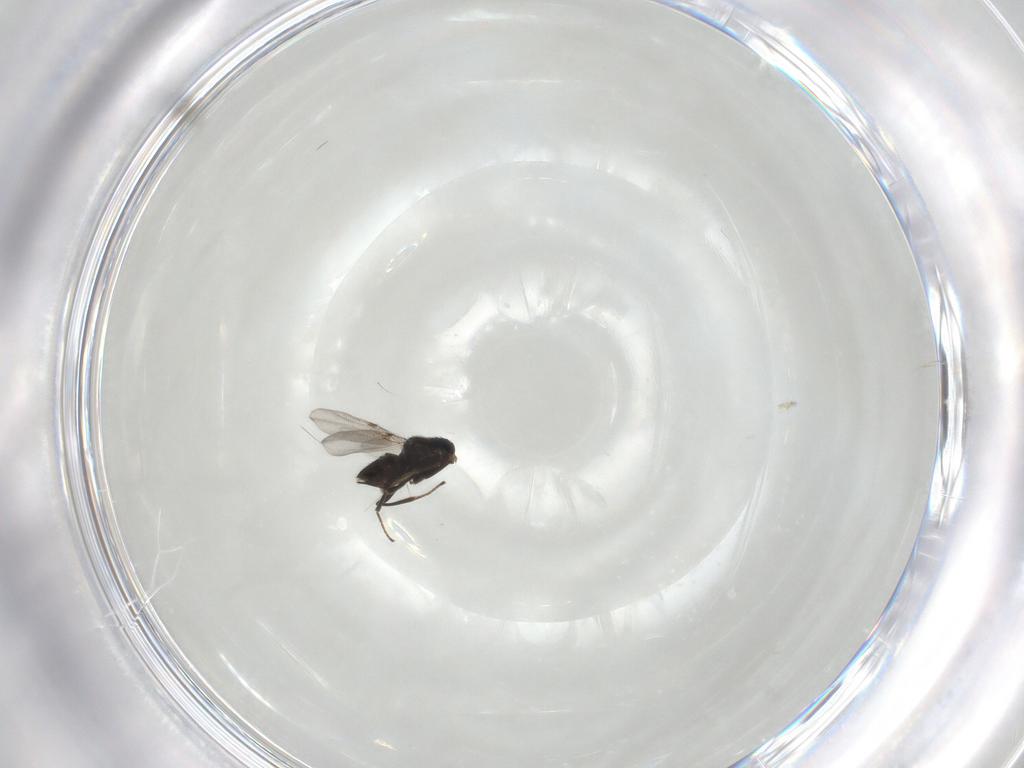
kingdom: Animalia
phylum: Arthropoda
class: Insecta
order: Hymenoptera
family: Encyrtidae
